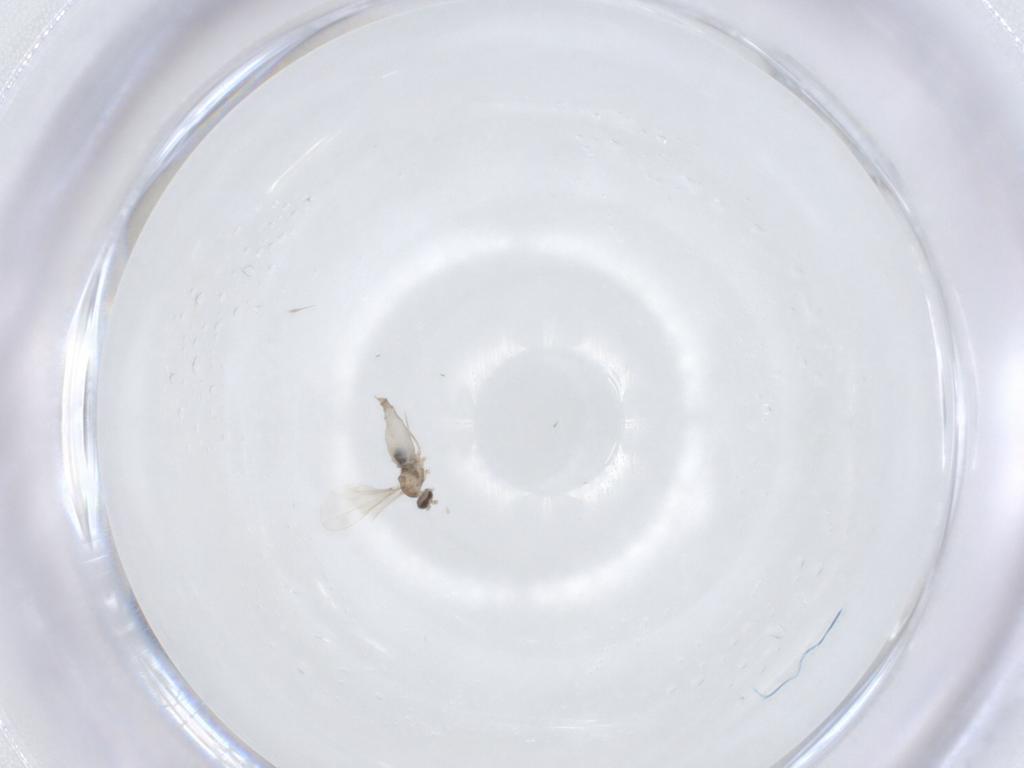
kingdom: Animalia
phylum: Arthropoda
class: Insecta
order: Diptera
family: Cecidomyiidae
